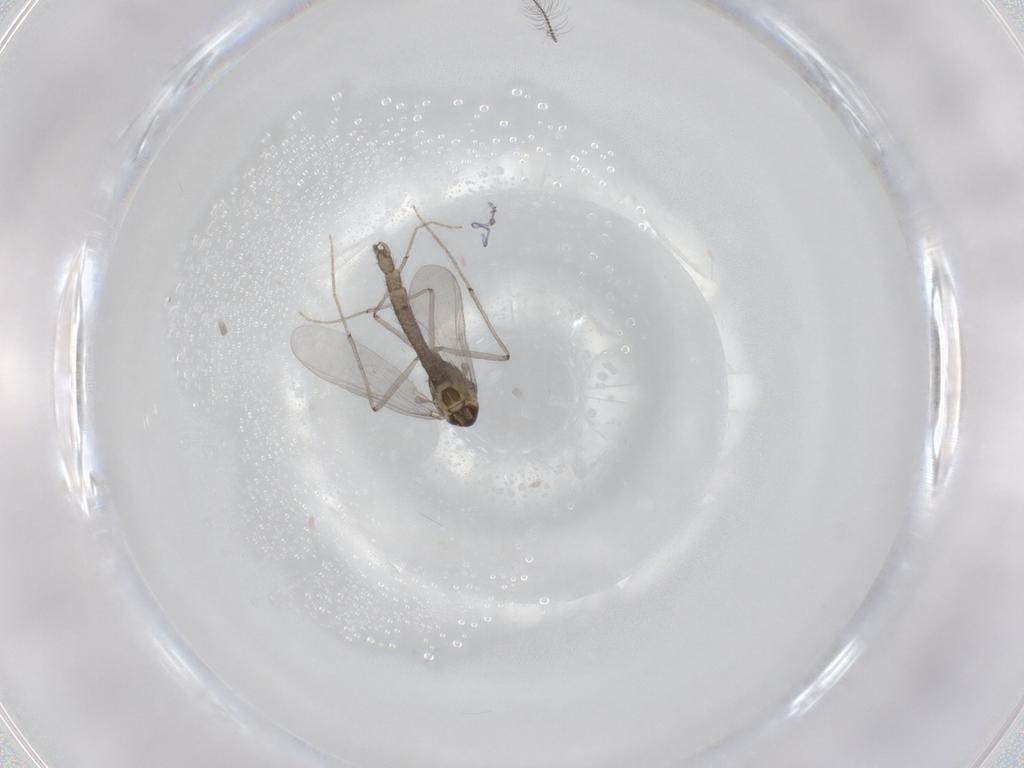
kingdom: Animalia
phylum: Arthropoda
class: Insecta
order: Diptera
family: Chironomidae
